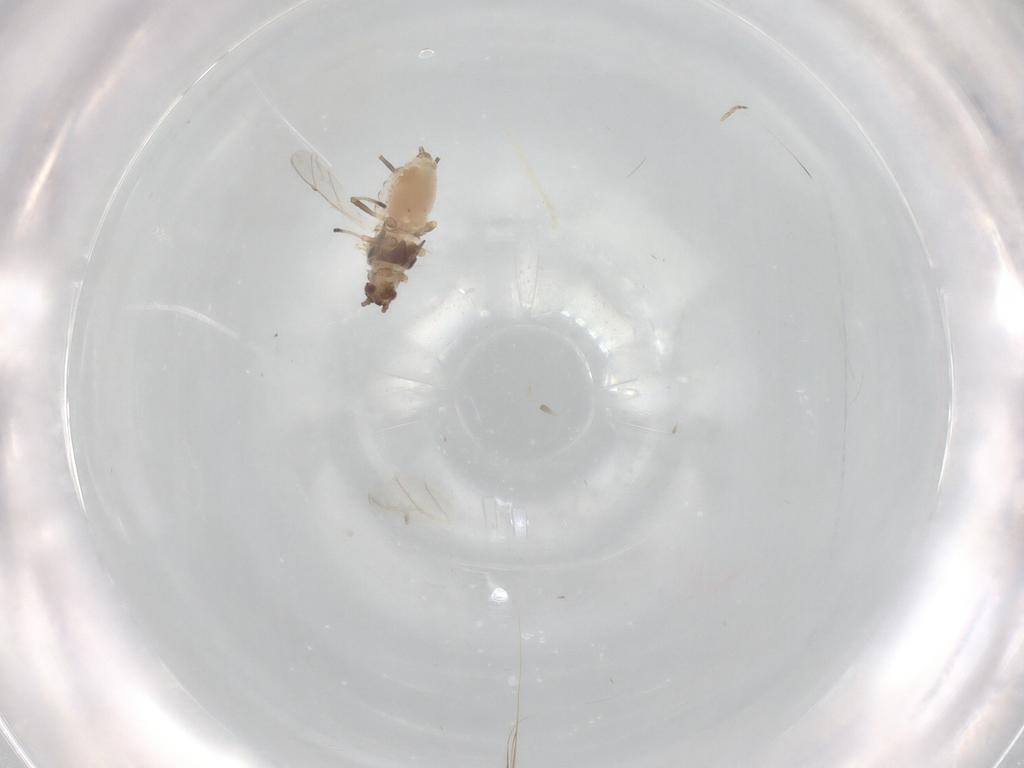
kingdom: Animalia
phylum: Arthropoda
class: Insecta
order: Hemiptera
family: Aphididae
